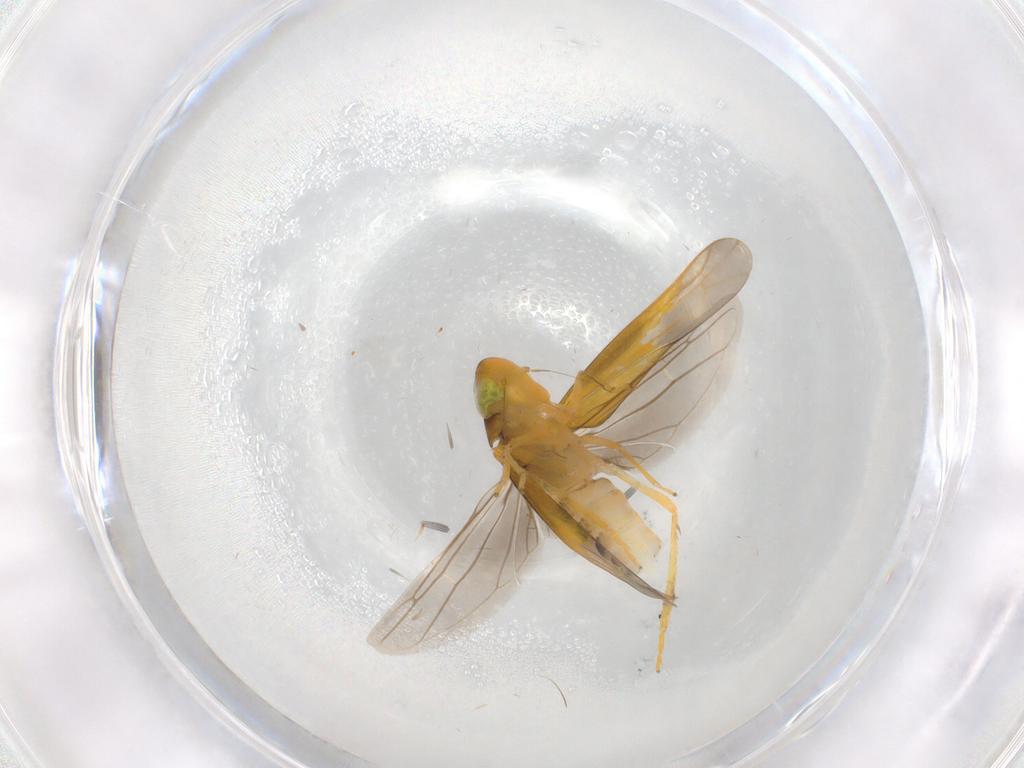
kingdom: Animalia
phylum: Arthropoda
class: Insecta
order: Hemiptera
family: Cicadellidae
